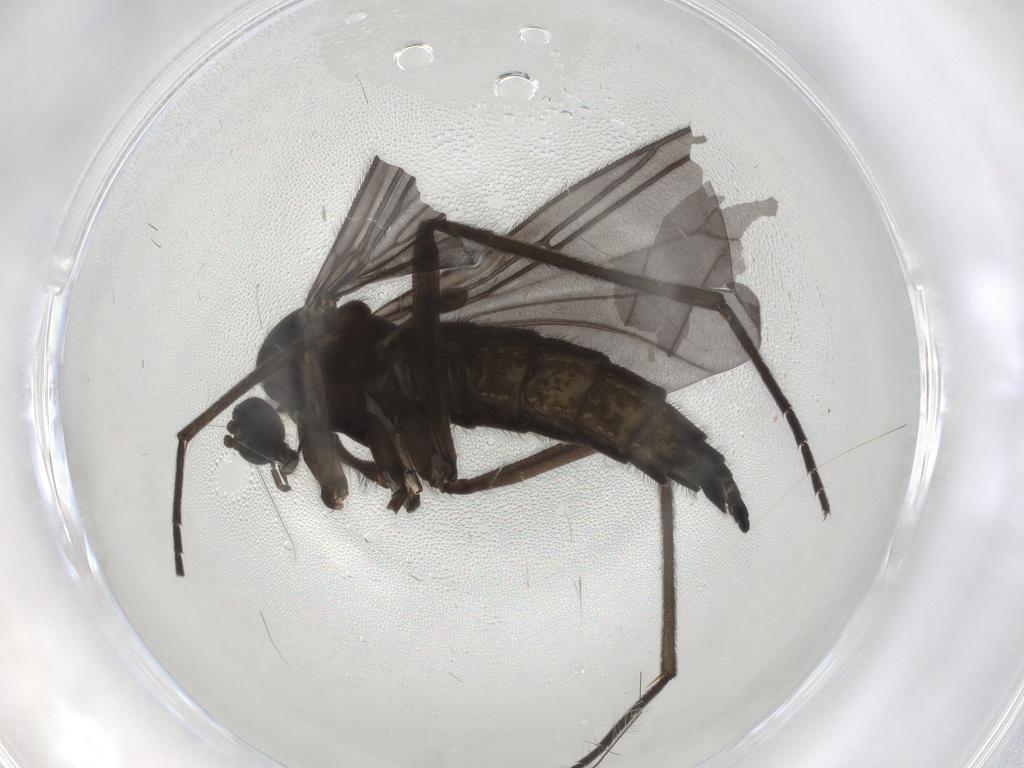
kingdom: Animalia
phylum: Arthropoda
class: Insecta
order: Diptera
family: Sciaridae
